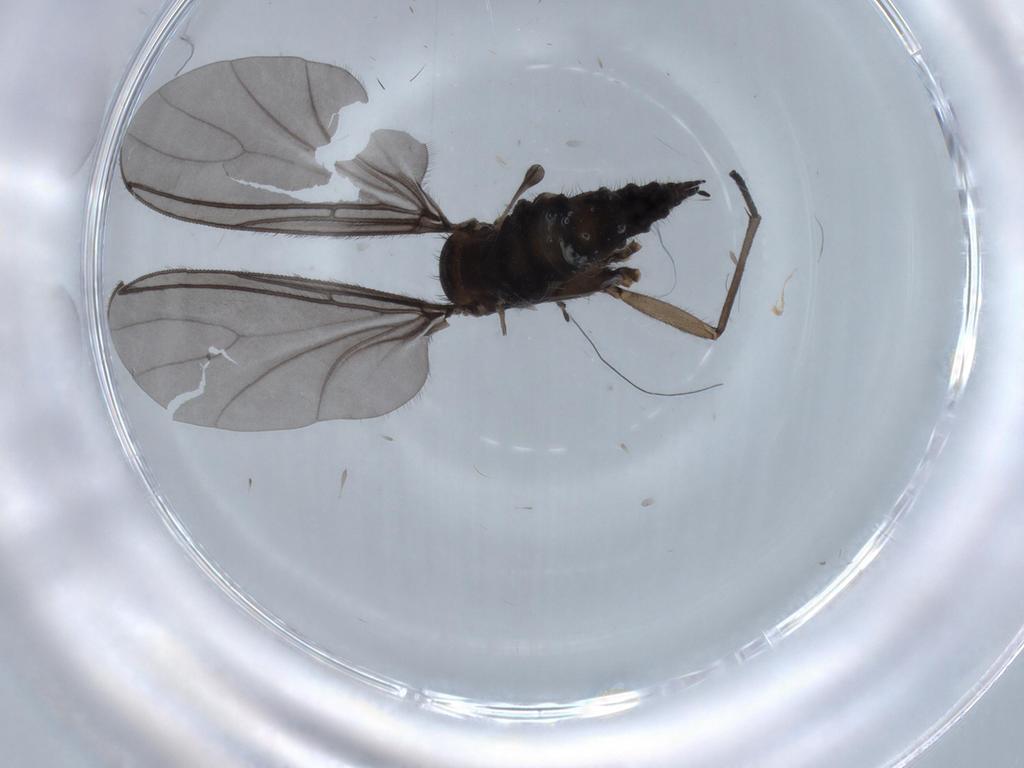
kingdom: Animalia
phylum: Arthropoda
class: Insecta
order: Diptera
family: Sciaridae
